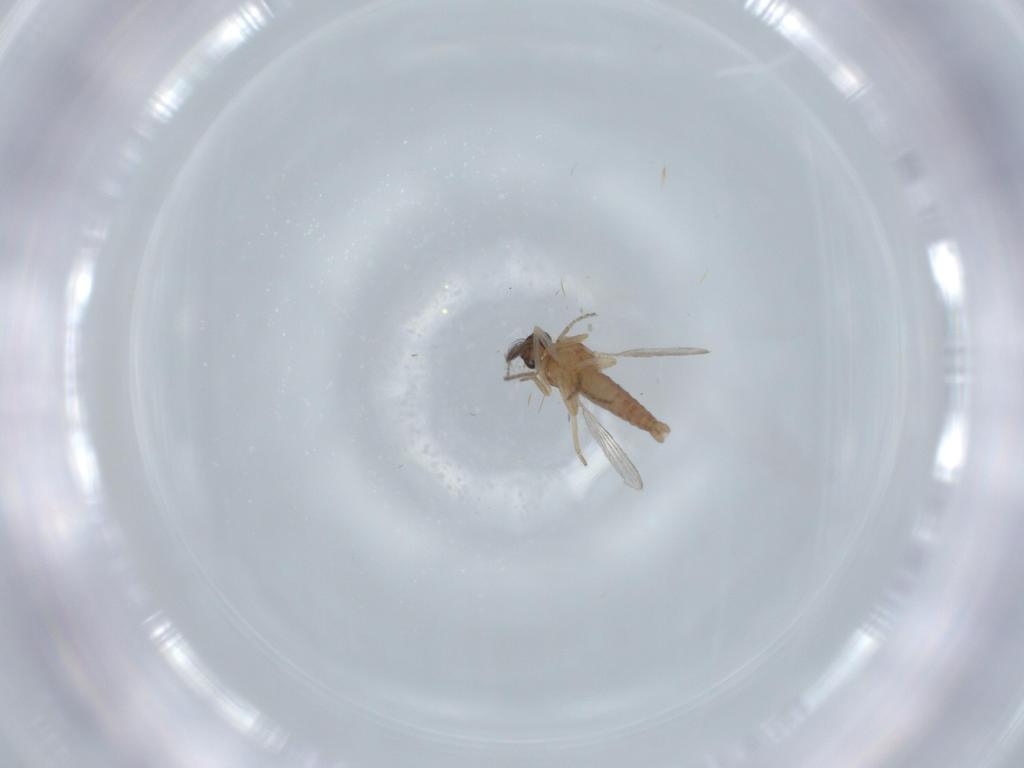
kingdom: Animalia
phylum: Arthropoda
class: Insecta
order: Diptera
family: Ceratopogonidae
